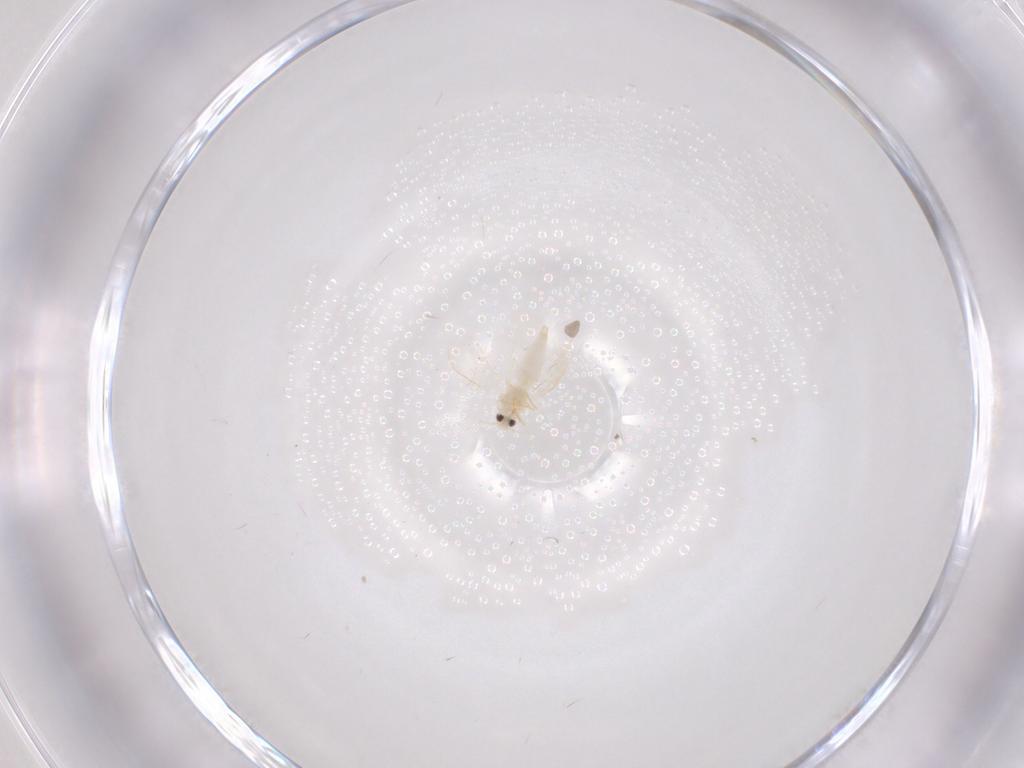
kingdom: Animalia
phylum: Arthropoda
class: Insecta
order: Hemiptera
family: Aleyrodidae
